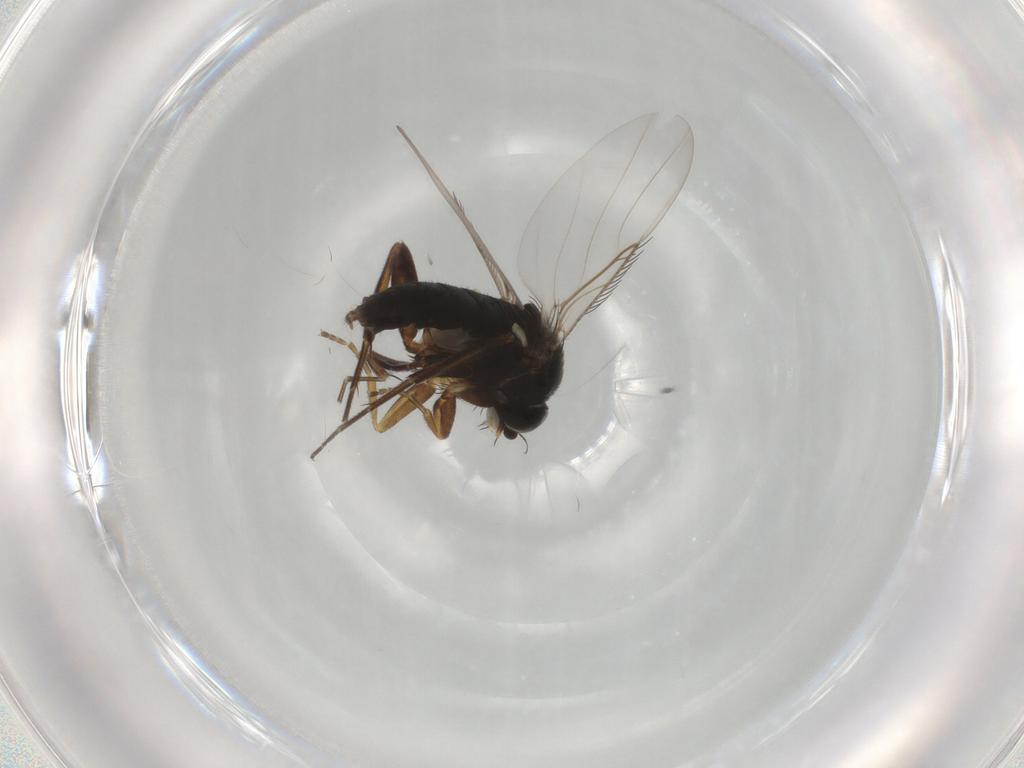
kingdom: Animalia
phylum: Arthropoda
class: Insecta
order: Diptera
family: Phoridae
